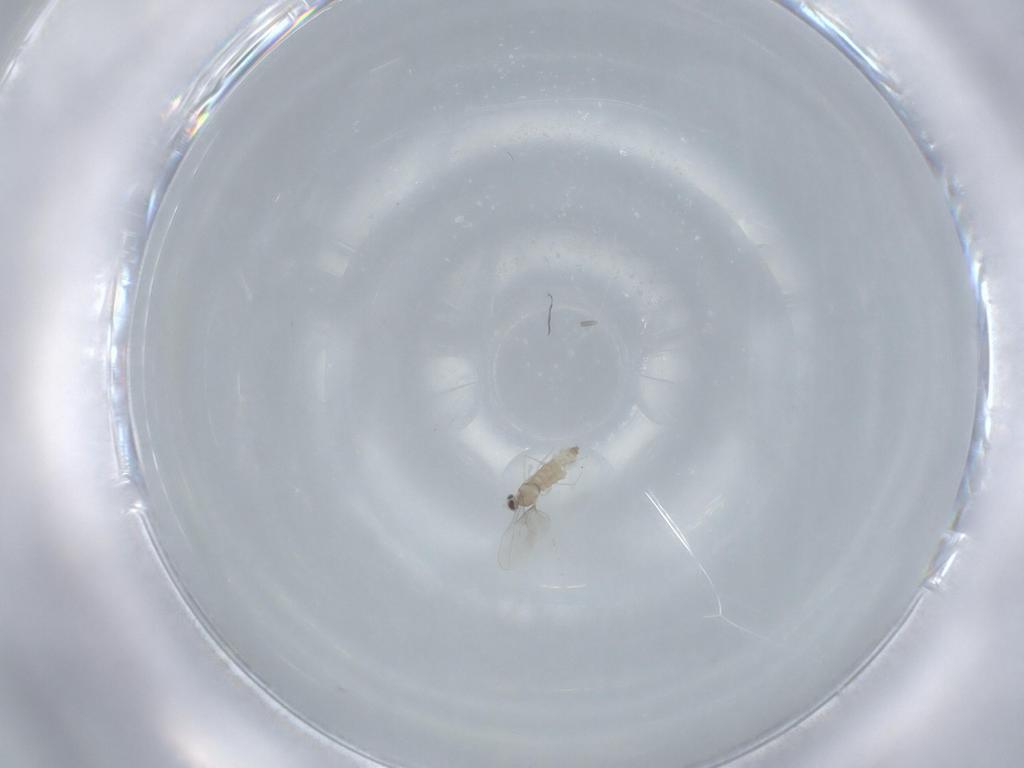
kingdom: Animalia
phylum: Arthropoda
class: Insecta
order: Diptera
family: Cecidomyiidae
